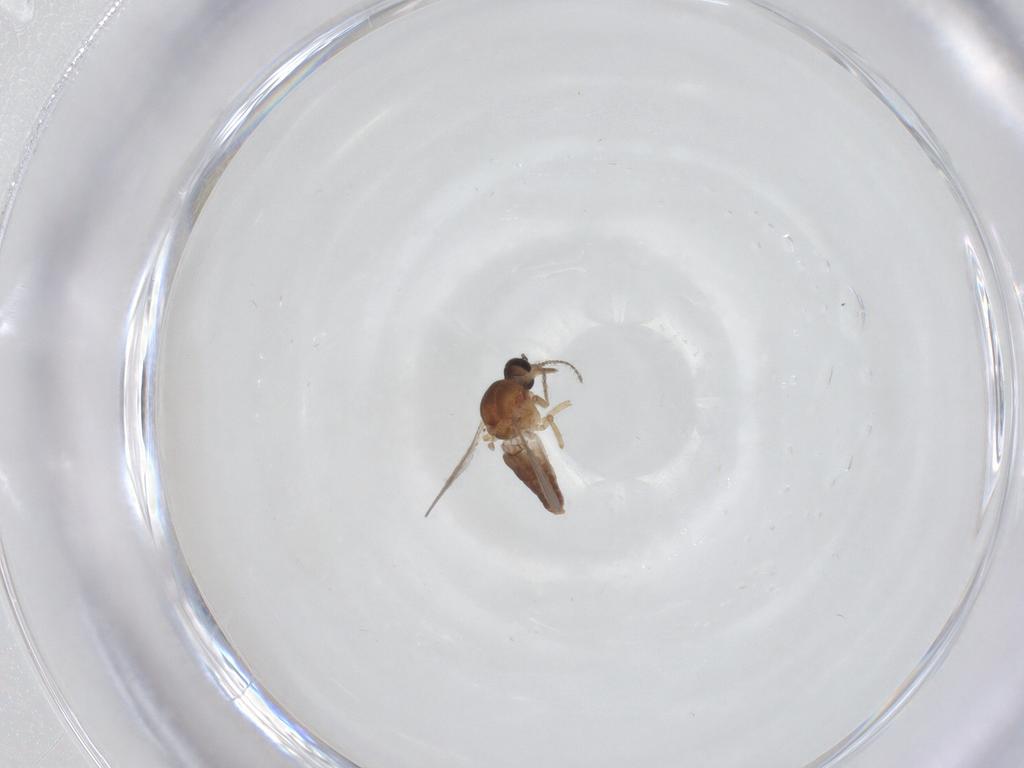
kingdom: Animalia
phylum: Arthropoda
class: Insecta
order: Diptera
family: Ceratopogonidae
